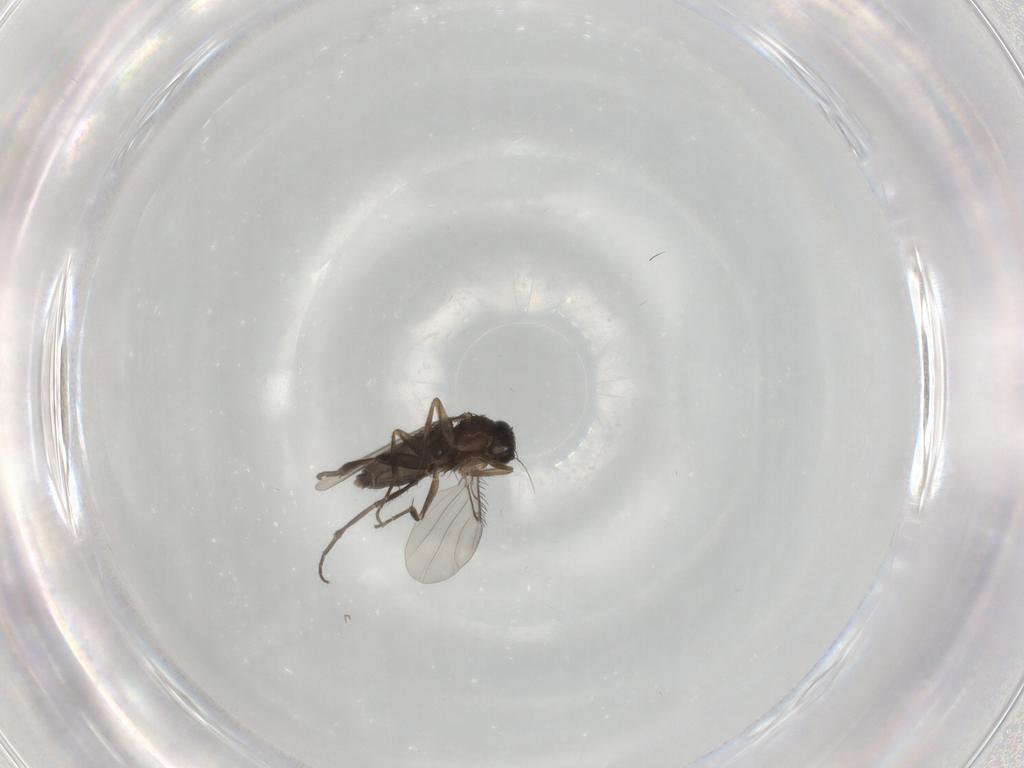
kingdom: Animalia
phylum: Arthropoda
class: Insecta
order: Diptera
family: Phoridae
